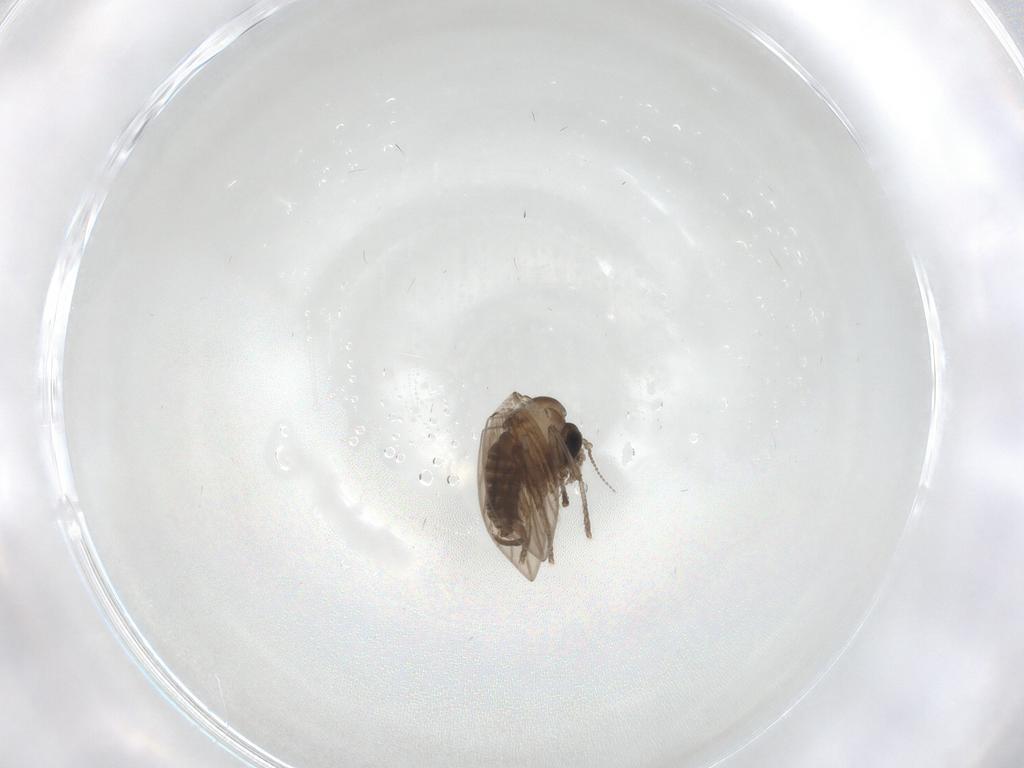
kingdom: Animalia
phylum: Arthropoda
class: Insecta
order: Diptera
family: Psychodidae
